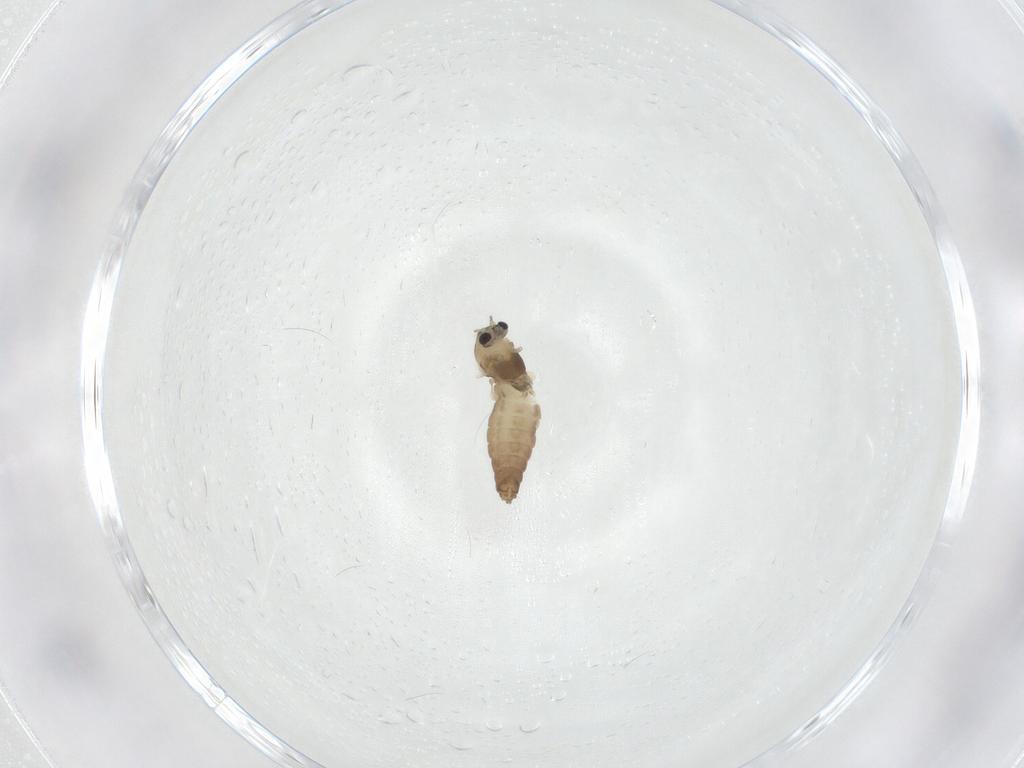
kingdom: Animalia
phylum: Arthropoda
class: Insecta
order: Diptera
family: Chironomidae
